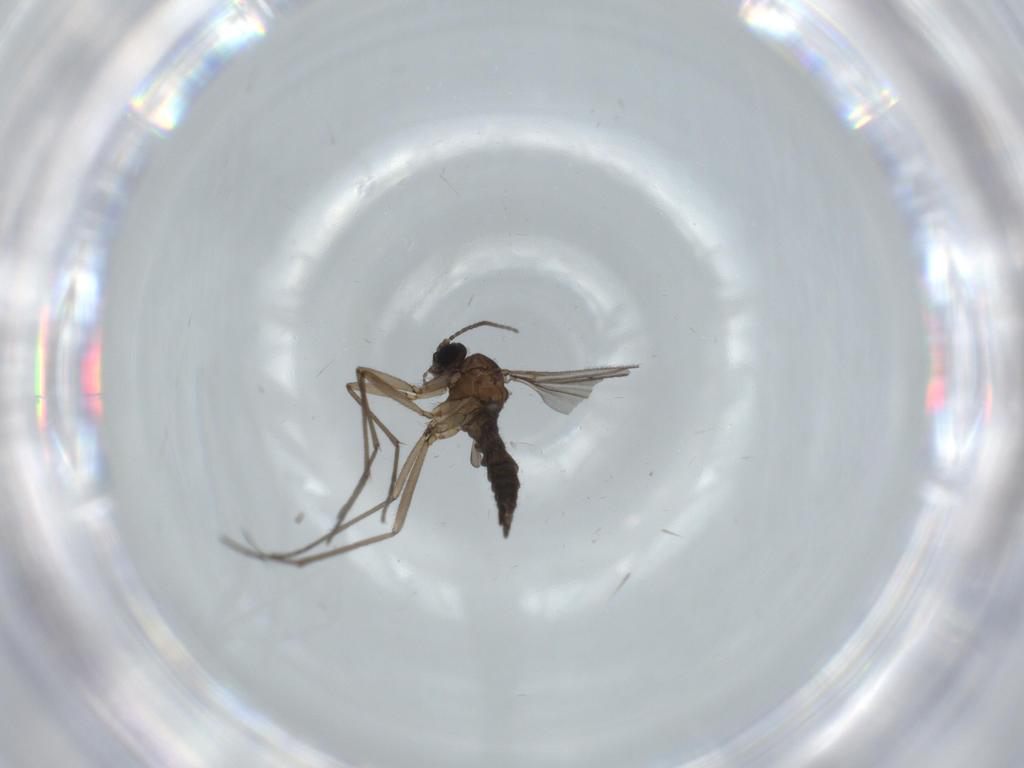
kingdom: Animalia
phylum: Arthropoda
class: Insecta
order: Diptera
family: Sciaridae
